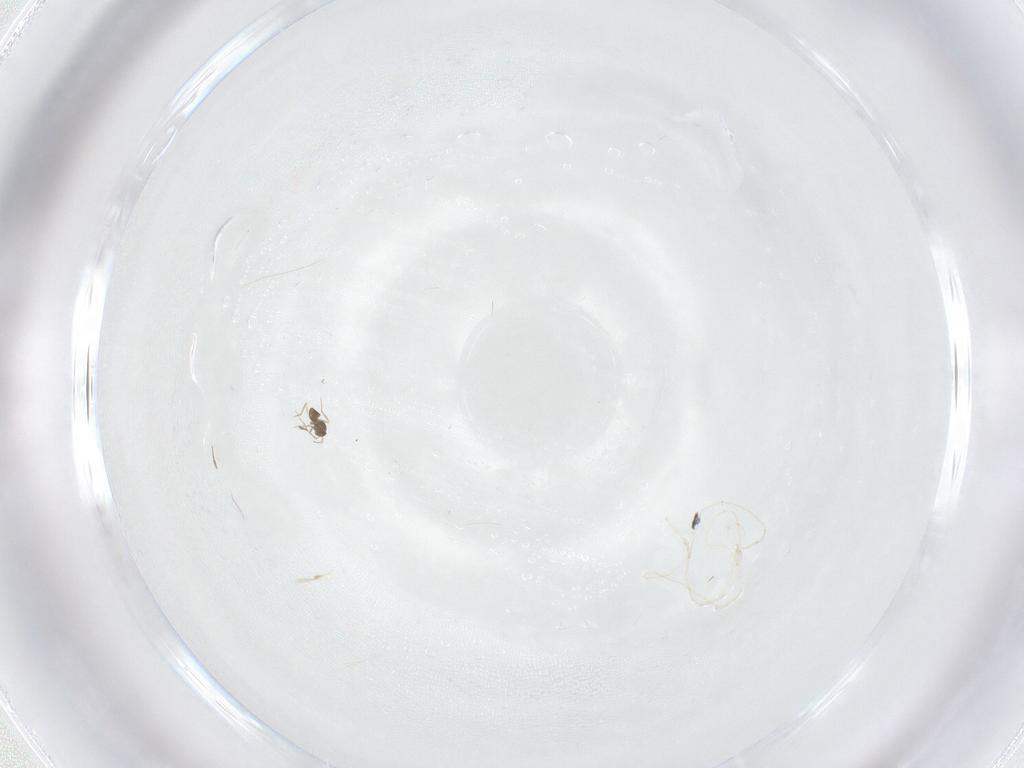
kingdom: Animalia
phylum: Arthropoda
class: Insecta
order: Hymenoptera
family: Mymaridae
